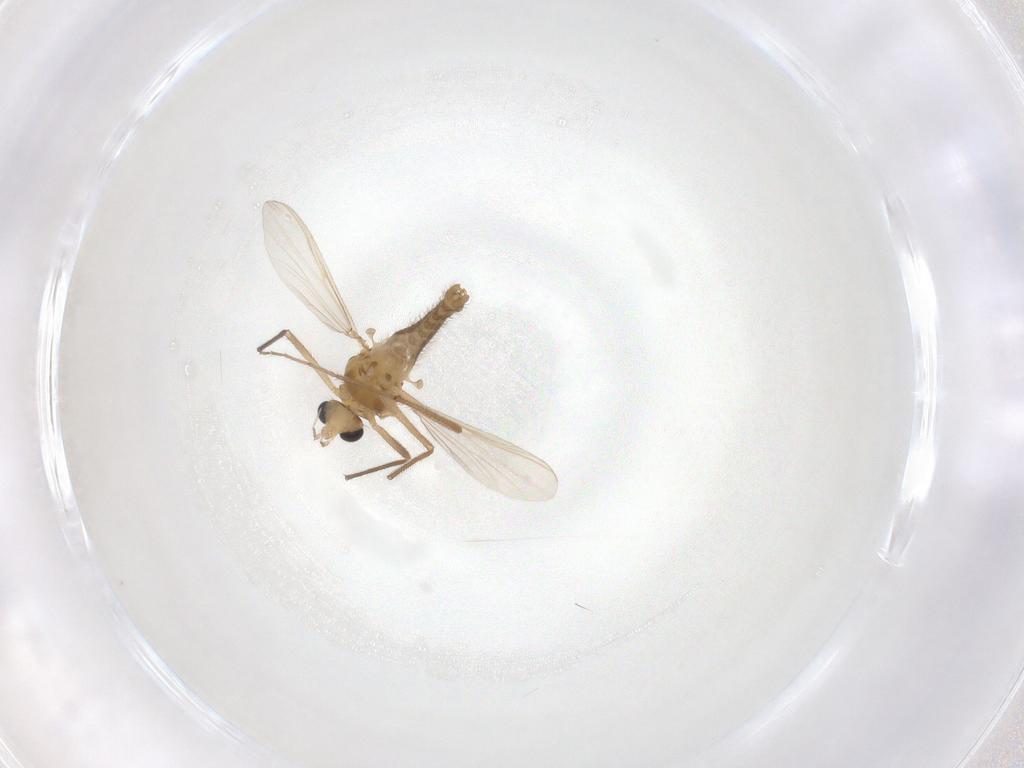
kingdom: Animalia
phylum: Arthropoda
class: Insecta
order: Diptera
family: Chironomidae
